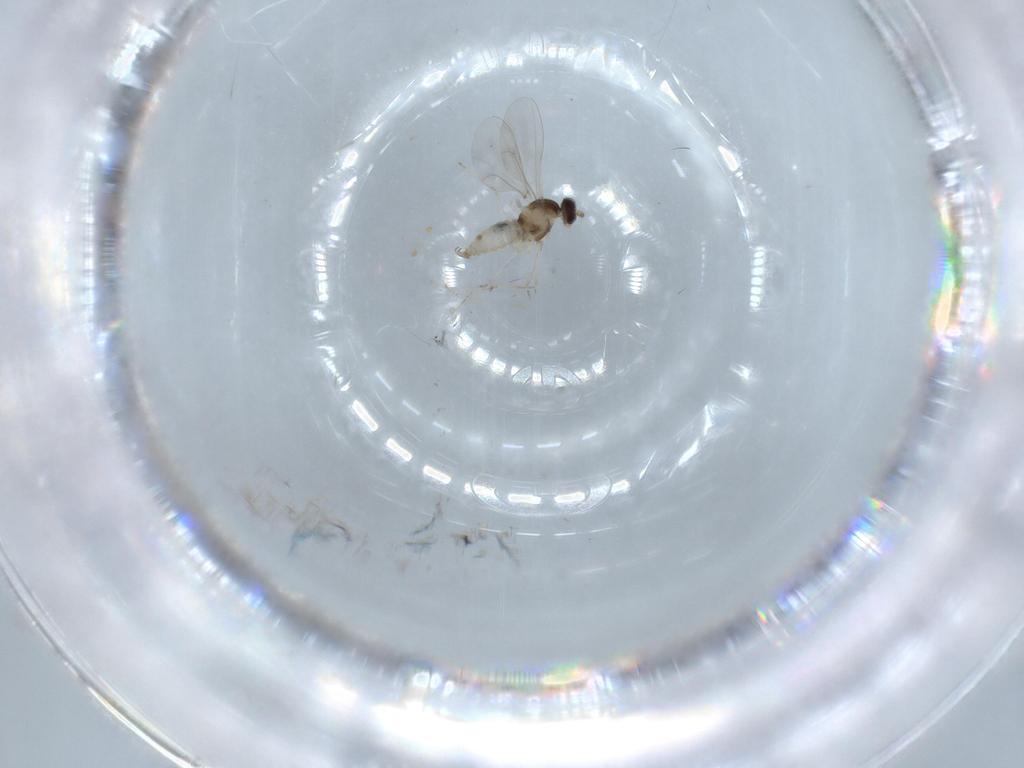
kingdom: Animalia
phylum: Arthropoda
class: Insecta
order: Diptera
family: Cecidomyiidae
